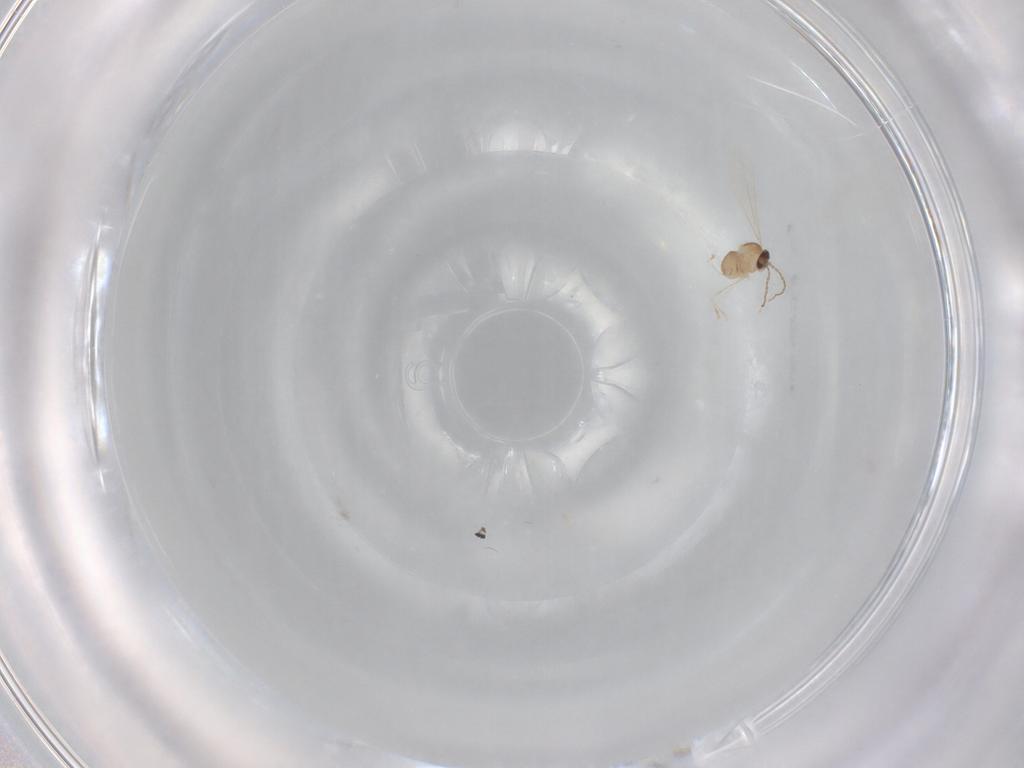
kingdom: Animalia
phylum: Arthropoda
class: Insecta
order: Diptera
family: Cecidomyiidae
